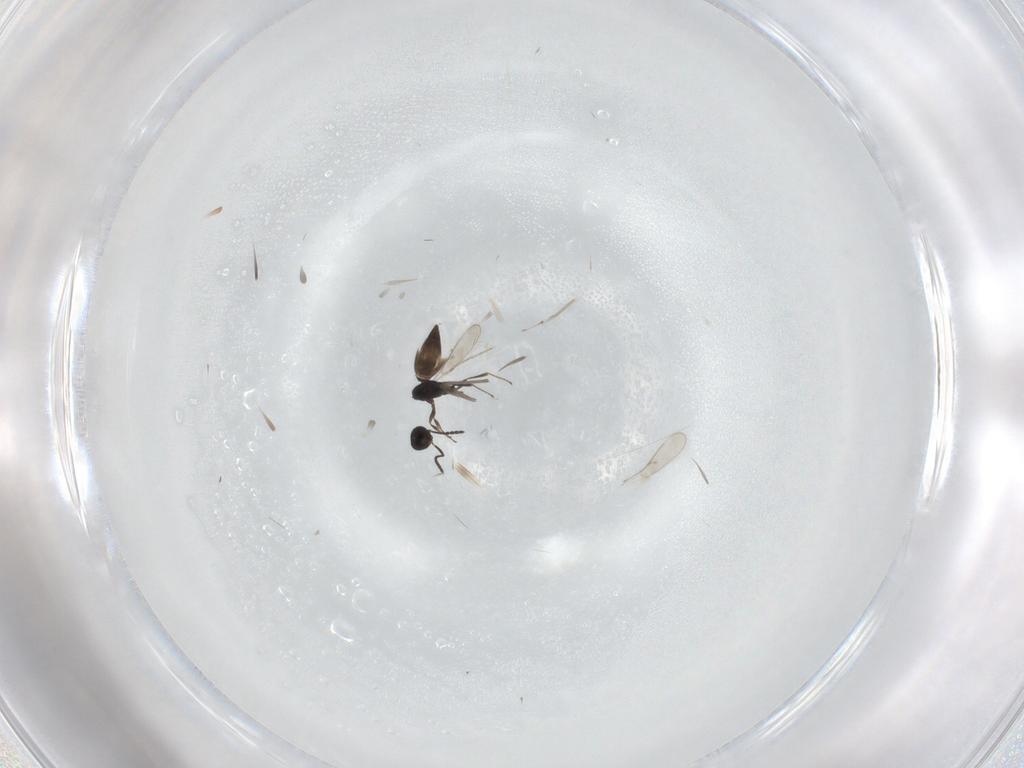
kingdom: Animalia
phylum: Arthropoda
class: Insecta
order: Hymenoptera
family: Scelionidae
